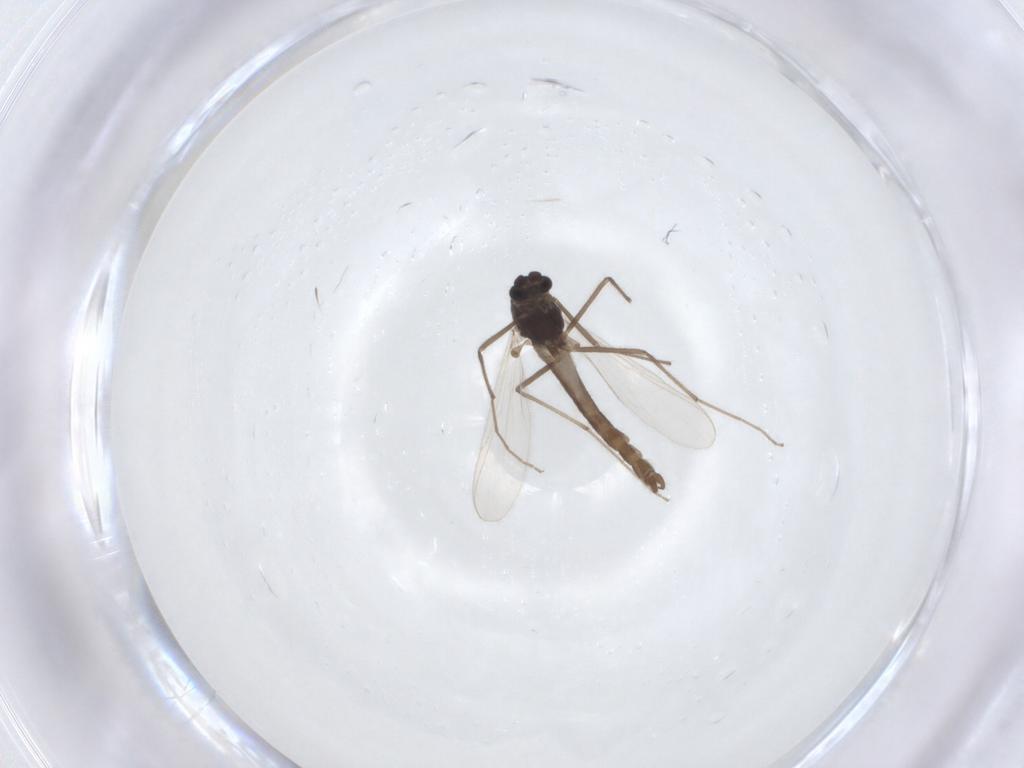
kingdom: Animalia
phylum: Arthropoda
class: Insecta
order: Diptera
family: Chironomidae
